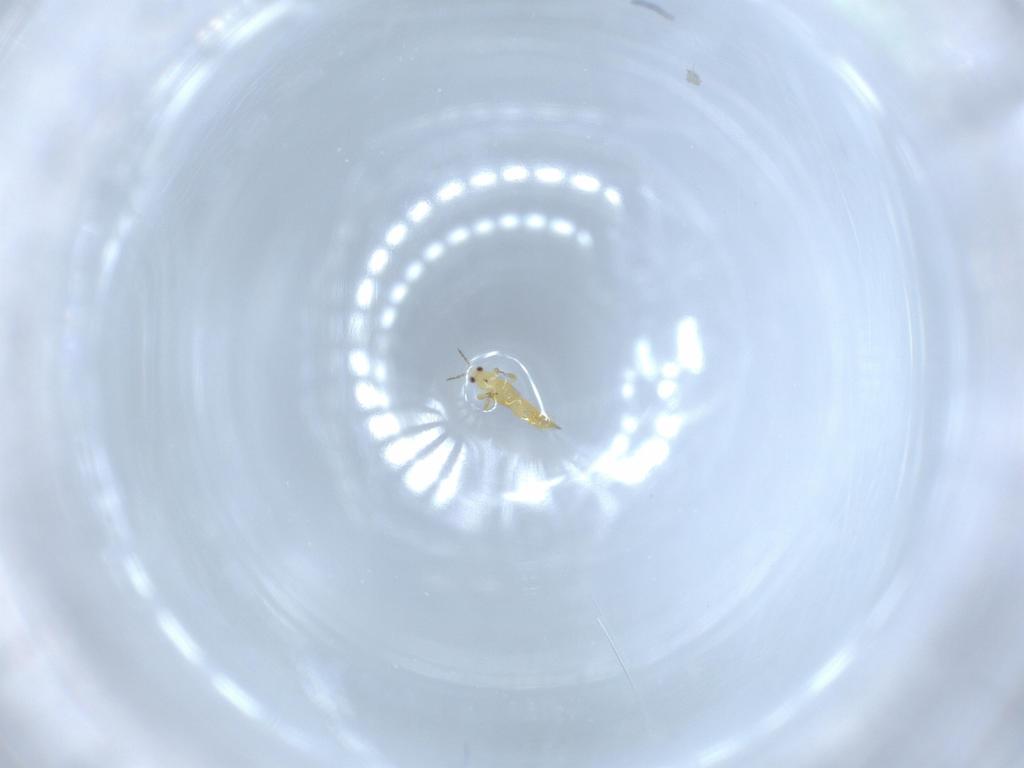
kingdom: Animalia
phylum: Arthropoda
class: Insecta
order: Thysanoptera
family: Thripidae
